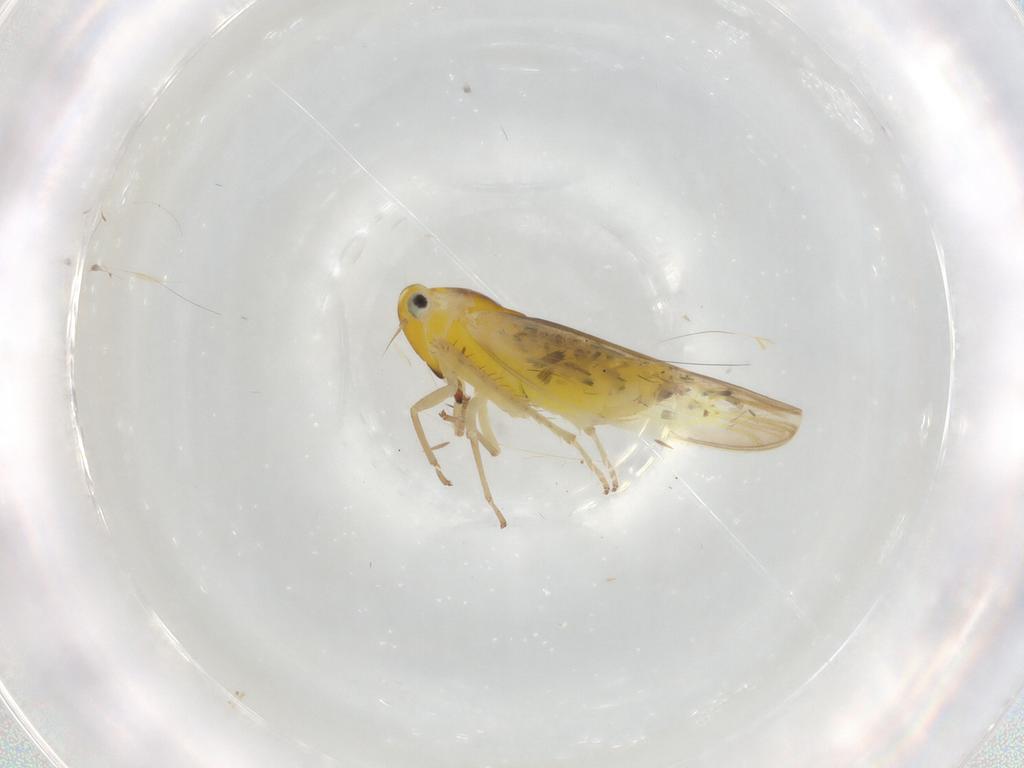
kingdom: Animalia
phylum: Arthropoda
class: Insecta
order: Hemiptera
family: Cicadellidae
